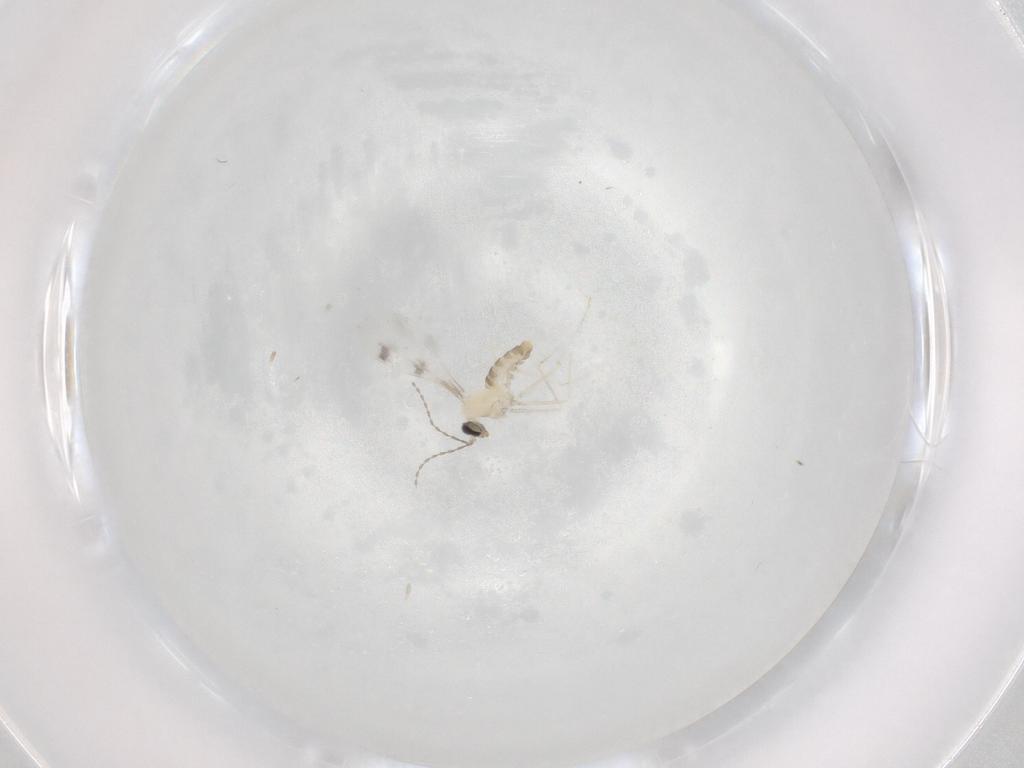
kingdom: Animalia
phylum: Arthropoda
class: Insecta
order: Diptera
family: Cecidomyiidae
